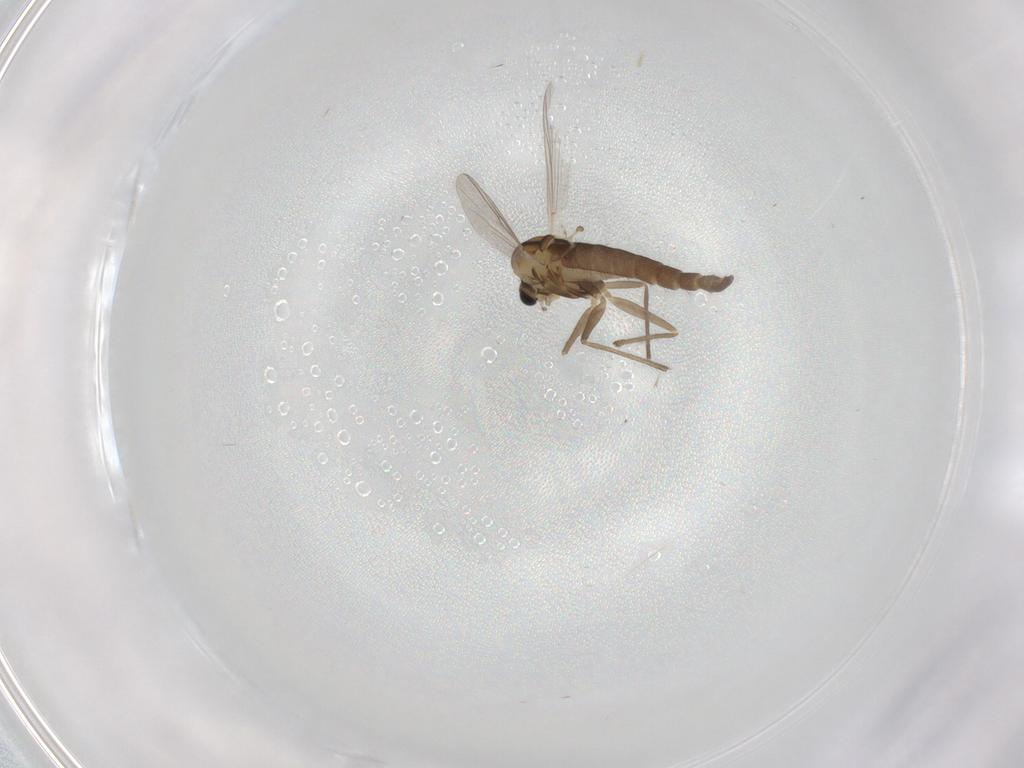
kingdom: Animalia
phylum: Arthropoda
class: Insecta
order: Diptera
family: Chironomidae
